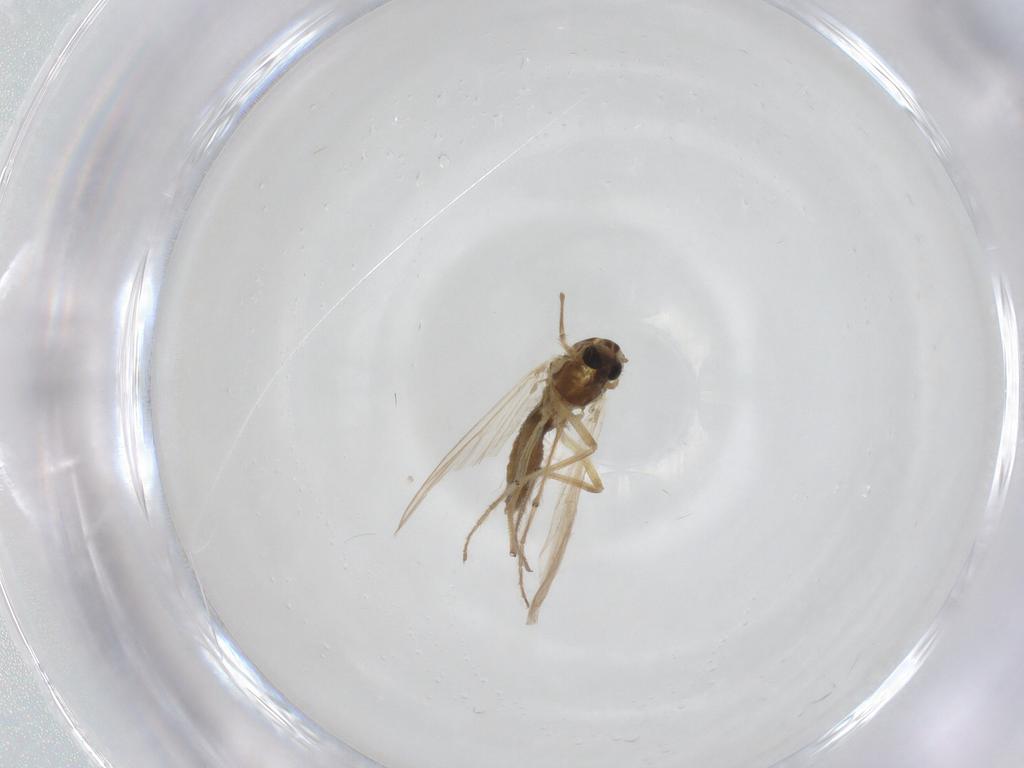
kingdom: Animalia
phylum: Arthropoda
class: Insecta
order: Diptera
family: Chironomidae
